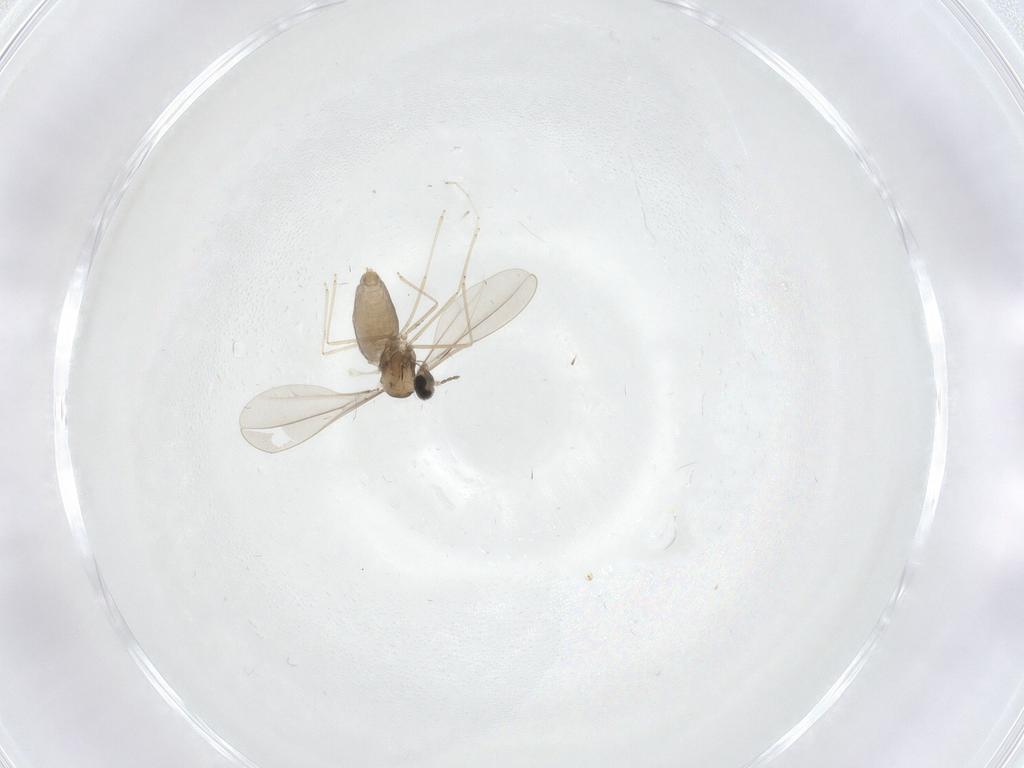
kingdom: Animalia
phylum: Arthropoda
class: Insecta
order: Diptera
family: Cecidomyiidae
